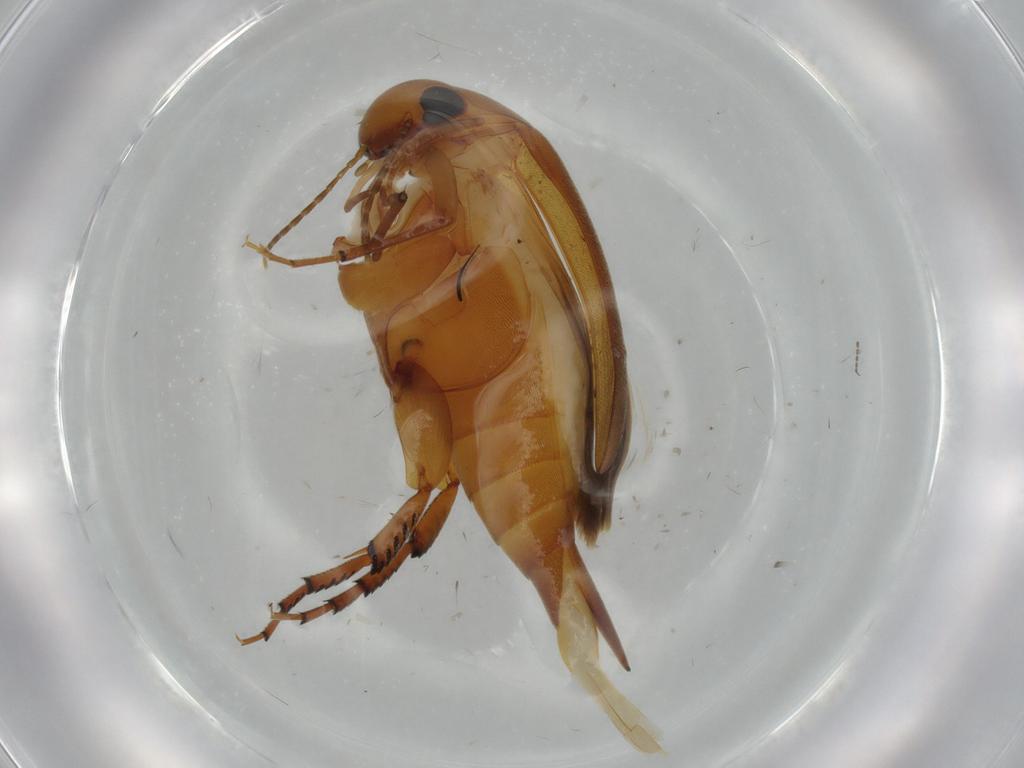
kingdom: Animalia
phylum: Arthropoda
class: Insecta
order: Coleoptera
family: Mordellidae
